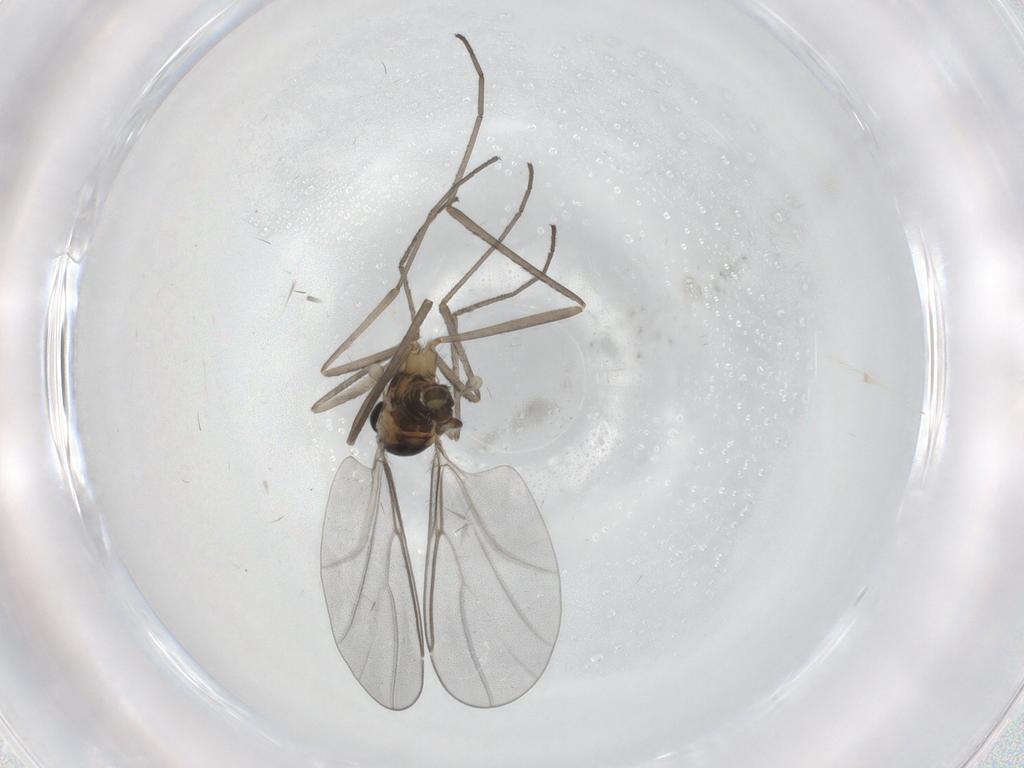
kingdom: Animalia
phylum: Arthropoda
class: Insecta
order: Diptera
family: Cecidomyiidae
